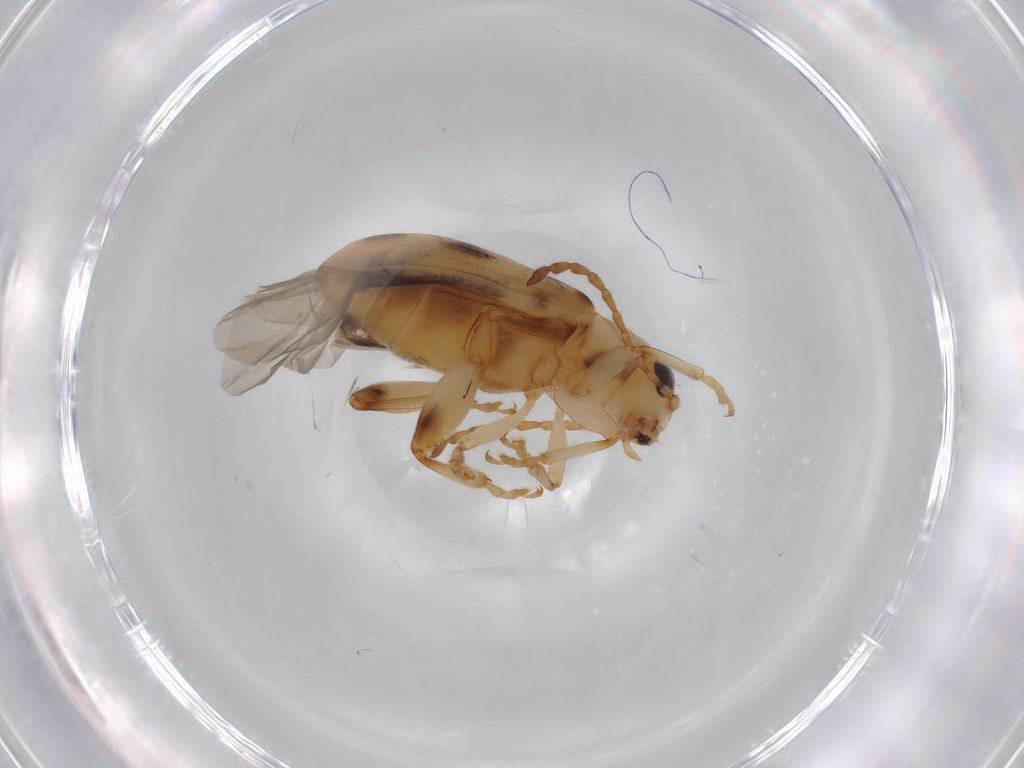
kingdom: Animalia
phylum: Arthropoda
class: Insecta
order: Coleoptera
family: Chrysomelidae
